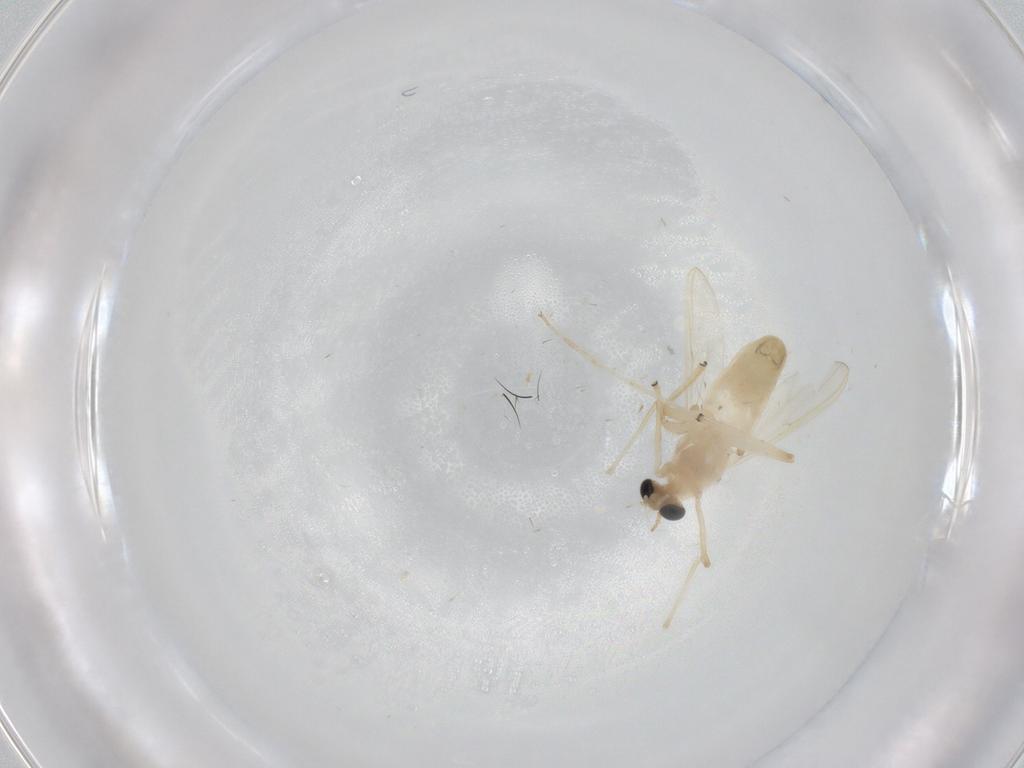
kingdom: Animalia
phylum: Arthropoda
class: Insecta
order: Diptera
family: Chironomidae
